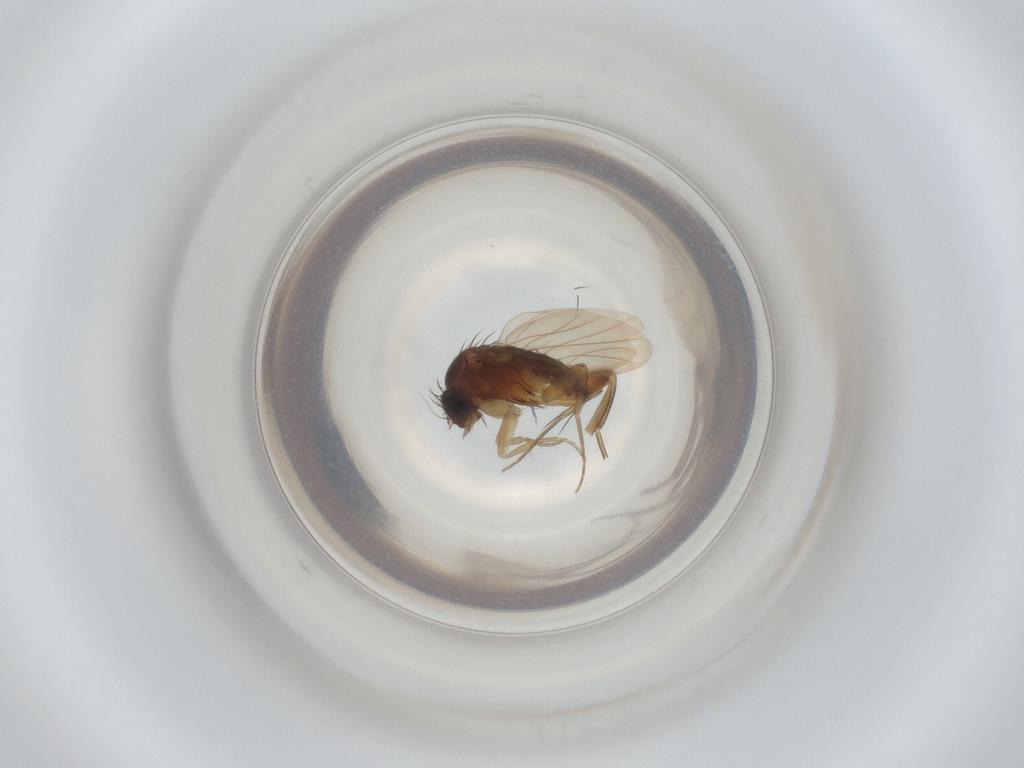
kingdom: Animalia
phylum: Arthropoda
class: Insecta
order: Diptera
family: Phoridae
